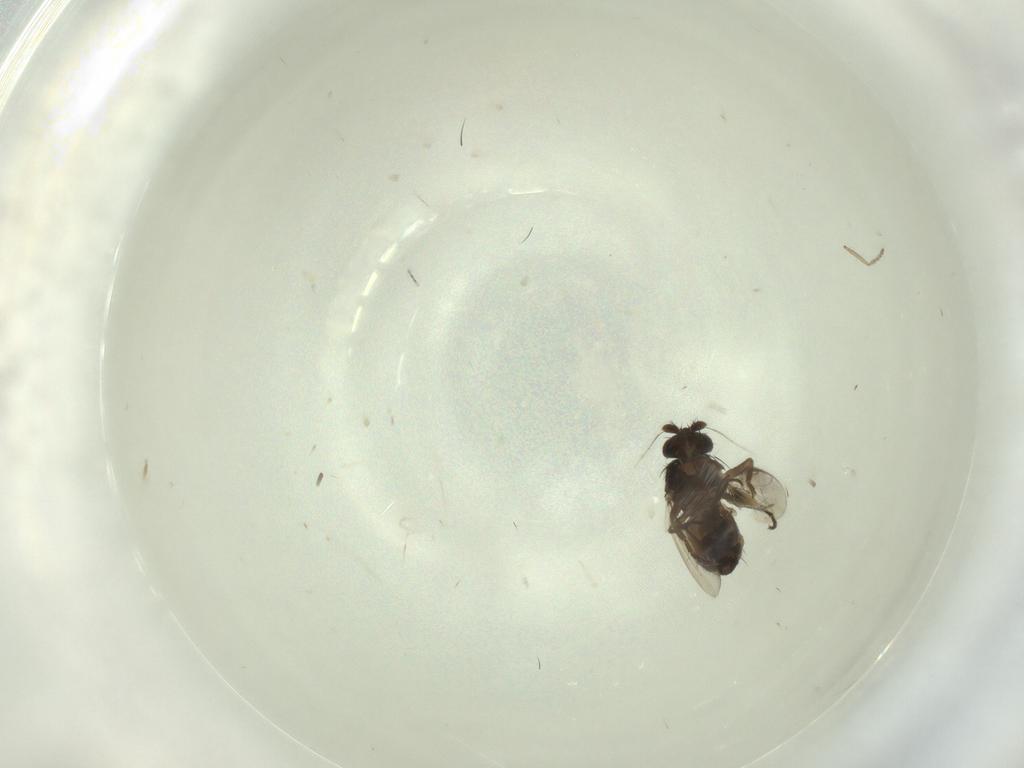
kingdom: Animalia
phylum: Arthropoda
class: Insecta
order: Diptera
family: Sphaeroceridae
